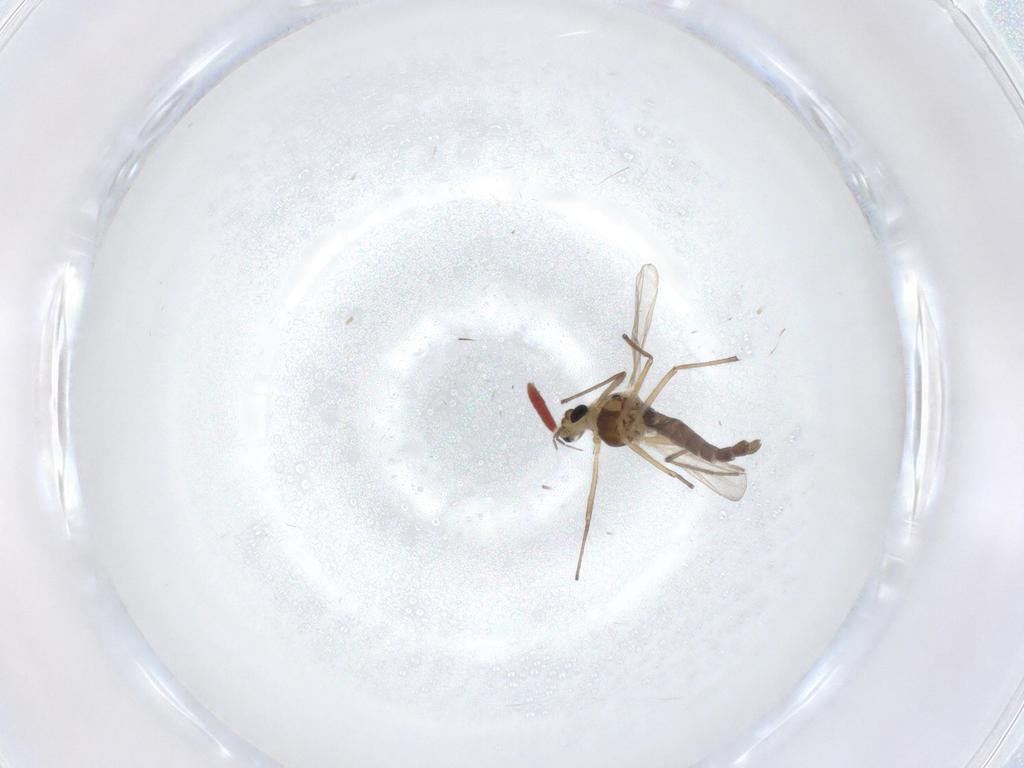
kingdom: Animalia
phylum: Arthropoda
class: Insecta
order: Diptera
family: Chironomidae
